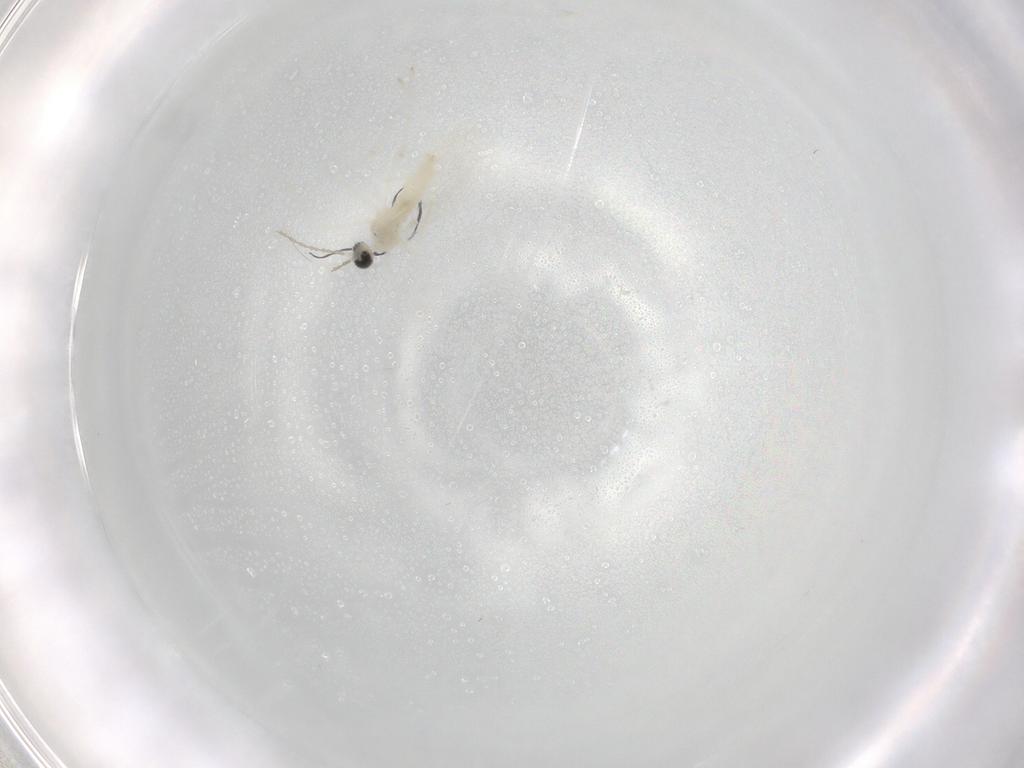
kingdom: Animalia
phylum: Arthropoda
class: Insecta
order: Diptera
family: Cecidomyiidae
